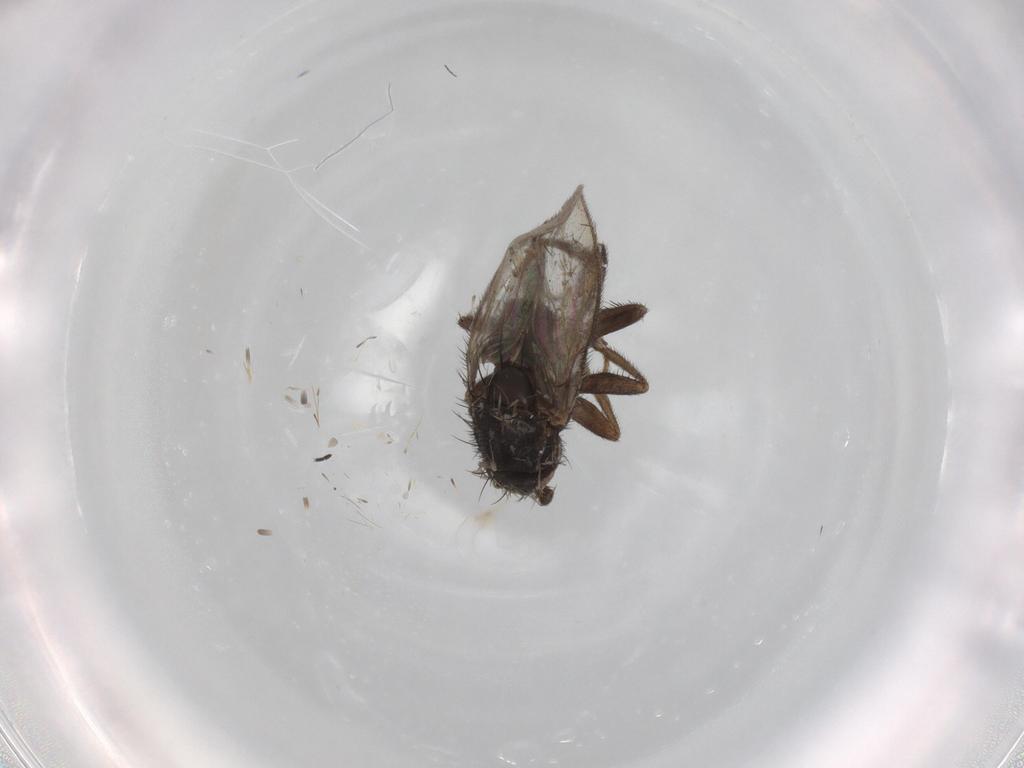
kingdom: Animalia
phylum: Arthropoda
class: Insecta
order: Diptera
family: Sphaeroceridae
